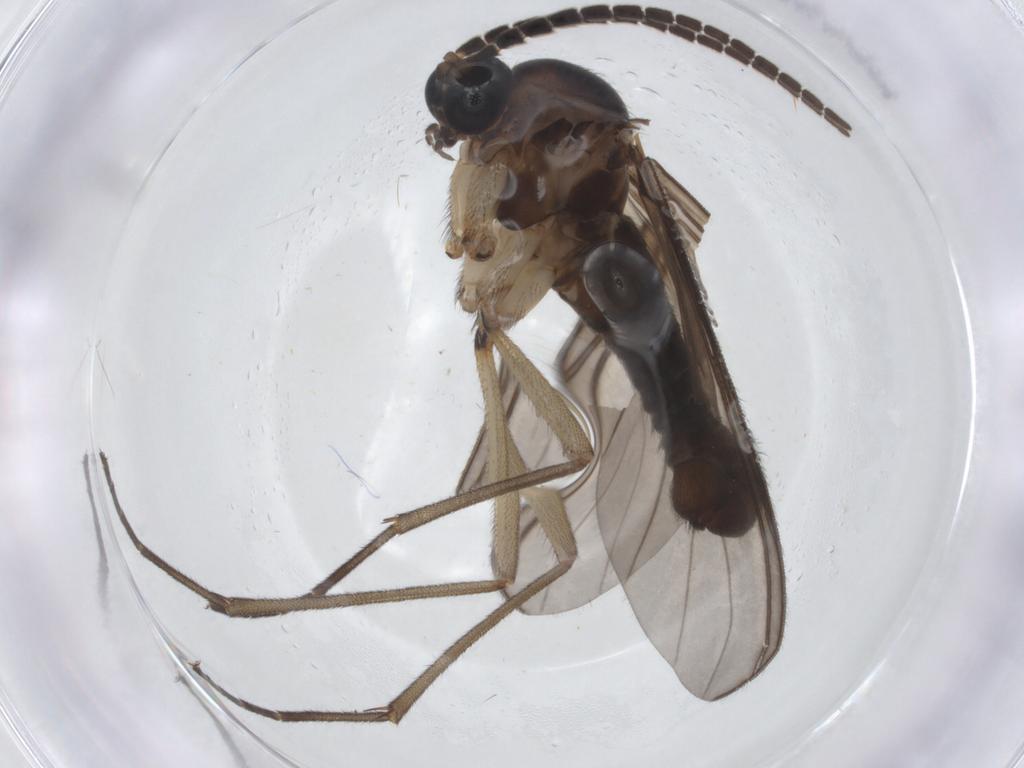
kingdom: Animalia
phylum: Arthropoda
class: Insecta
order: Diptera
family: Sciaridae
